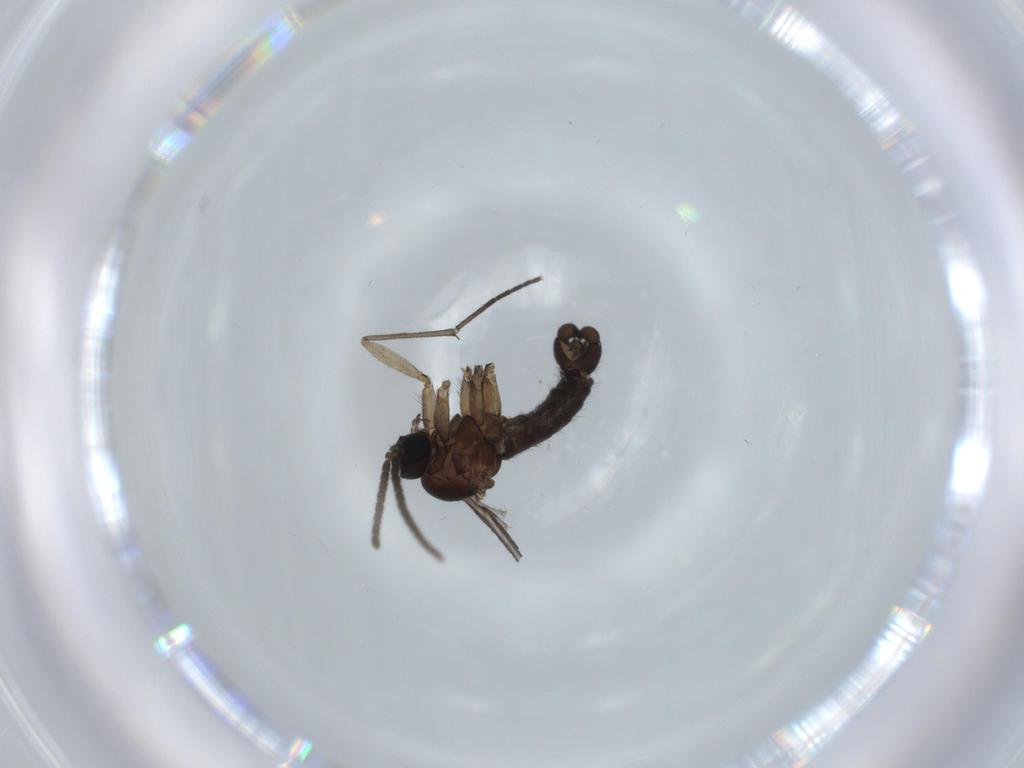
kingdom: Animalia
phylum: Arthropoda
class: Insecta
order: Diptera
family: Sciaridae
